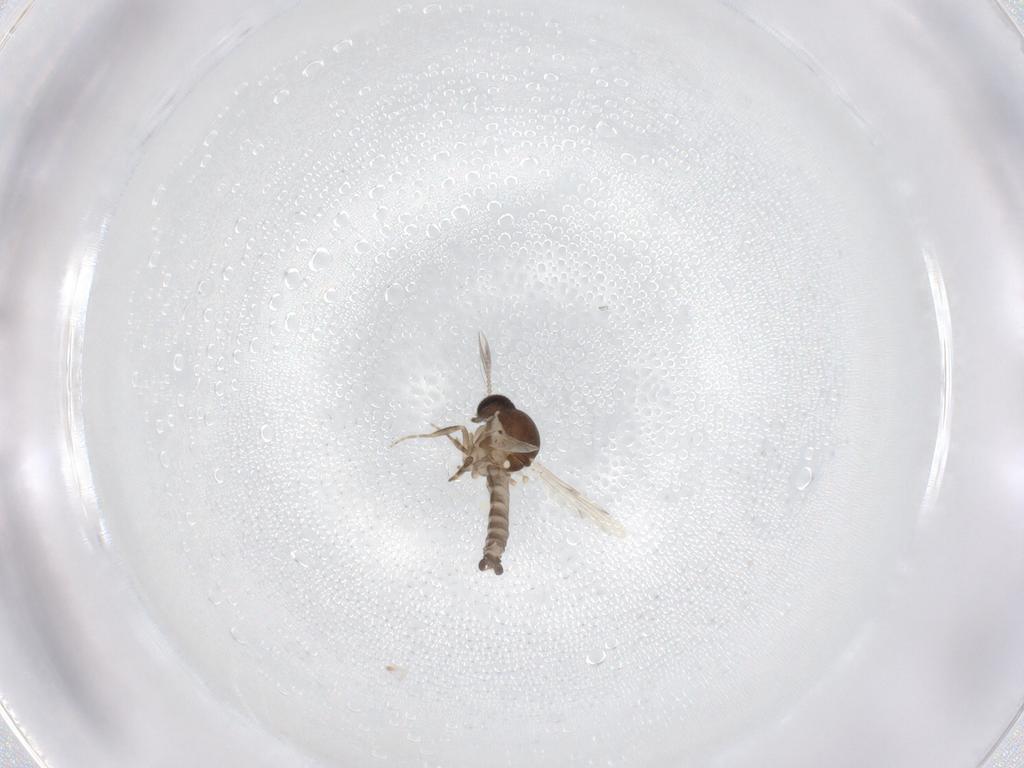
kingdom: Animalia
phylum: Arthropoda
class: Insecta
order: Diptera
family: Ceratopogonidae
